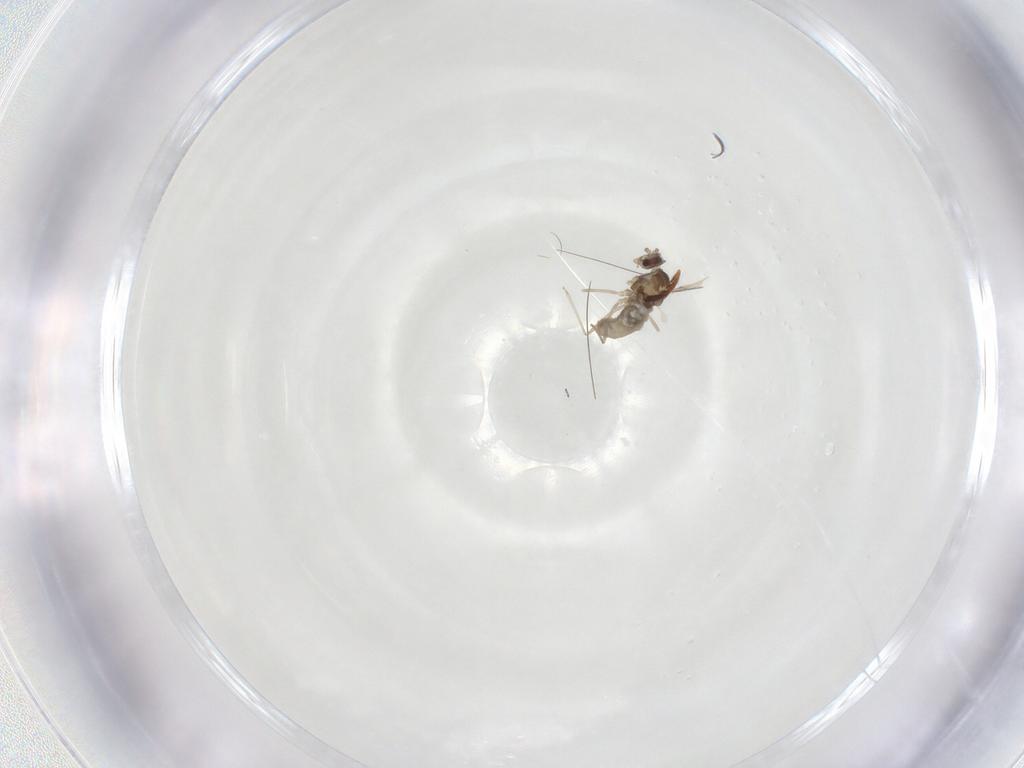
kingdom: Animalia
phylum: Arthropoda
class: Insecta
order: Diptera
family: Cecidomyiidae
